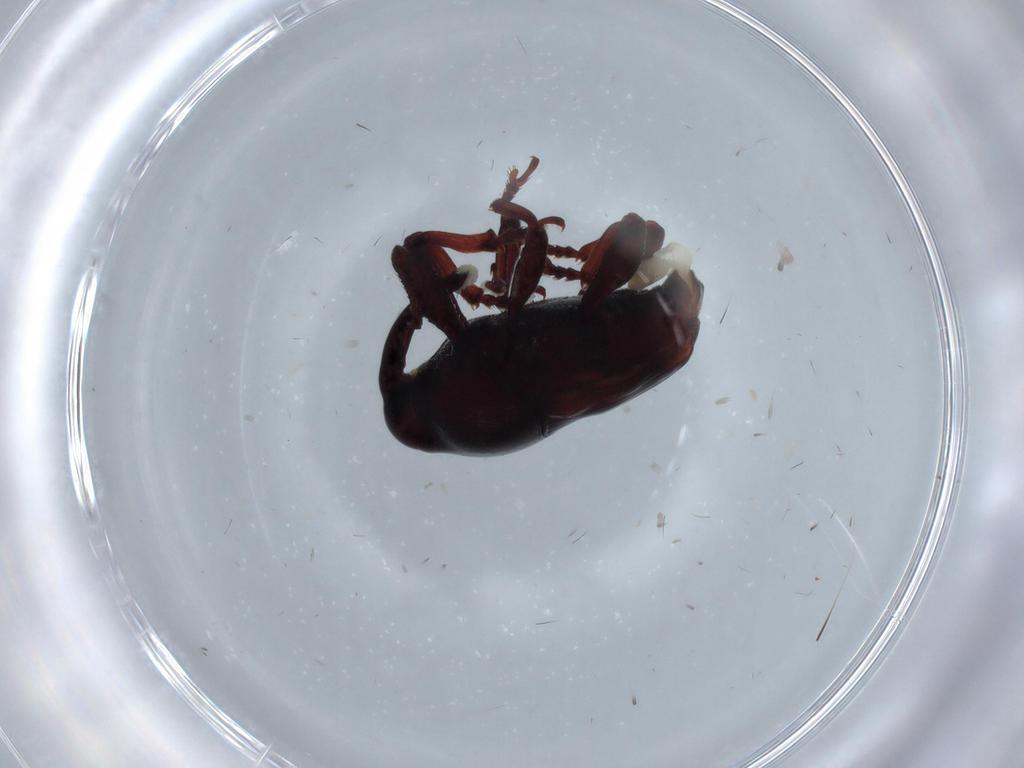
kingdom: Animalia
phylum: Arthropoda
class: Insecta
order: Coleoptera
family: Curculionidae
